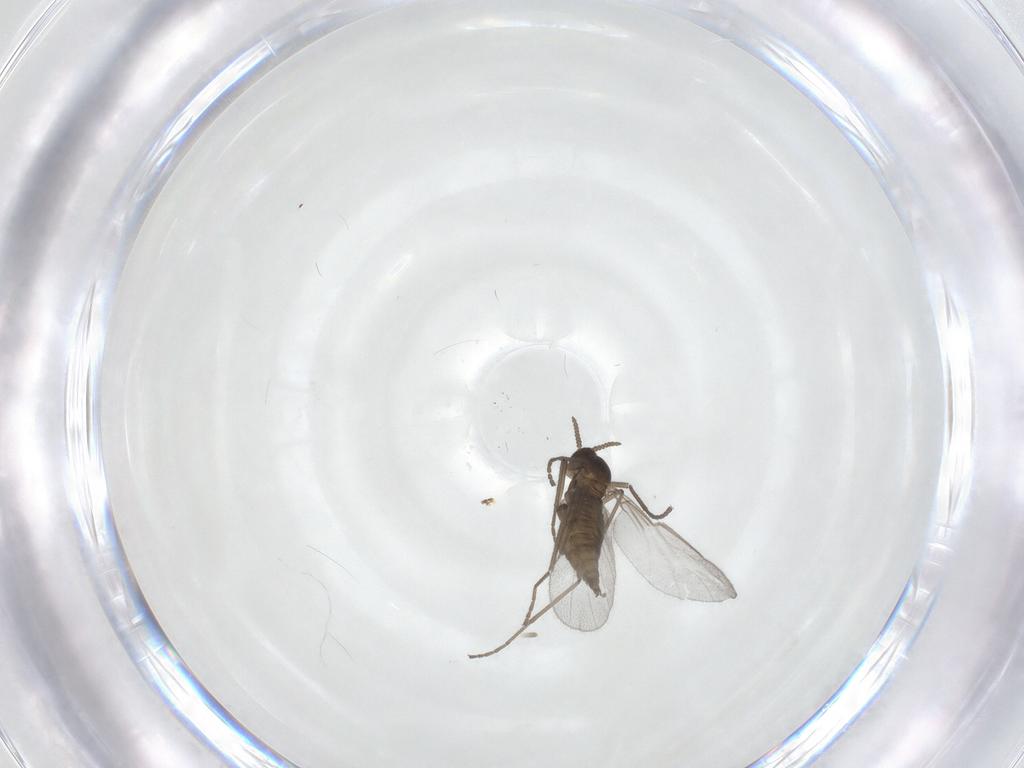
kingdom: Animalia
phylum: Arthropoda
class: Insecta
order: Diptera
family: Cecidomyiidae
